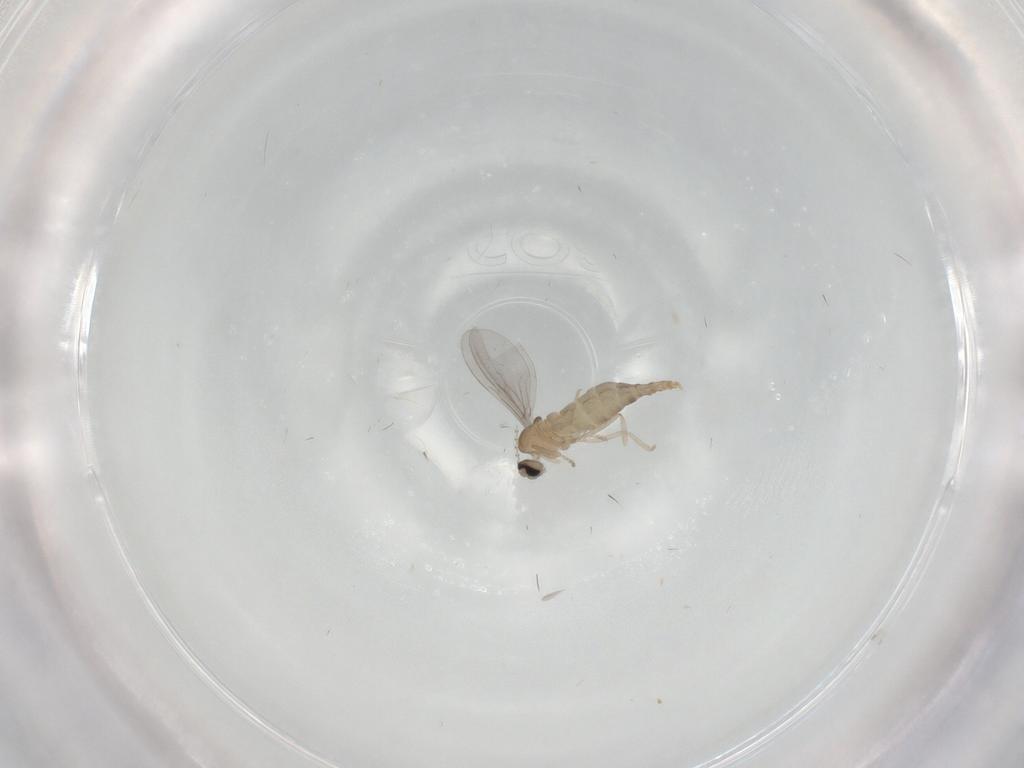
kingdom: Animalia
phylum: Arthropoda
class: Insecta
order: Diptera
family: Cecidomyiidae
